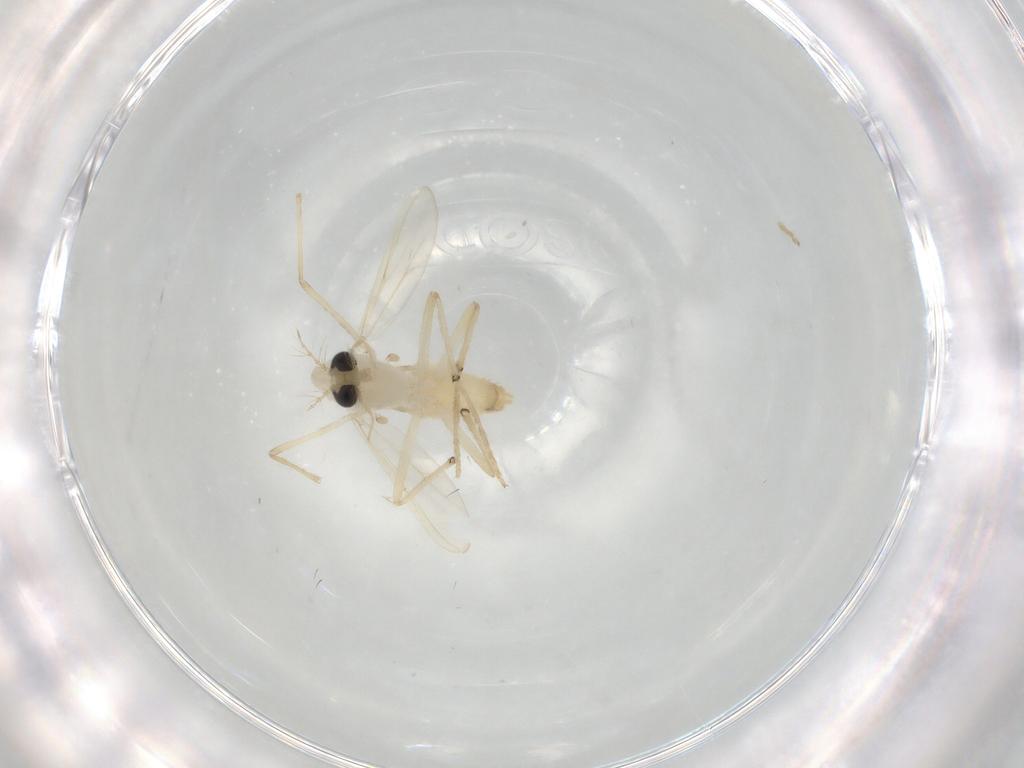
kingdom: Animalia
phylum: Arthropoda
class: Insecta
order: Diptera
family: Chironomidae
